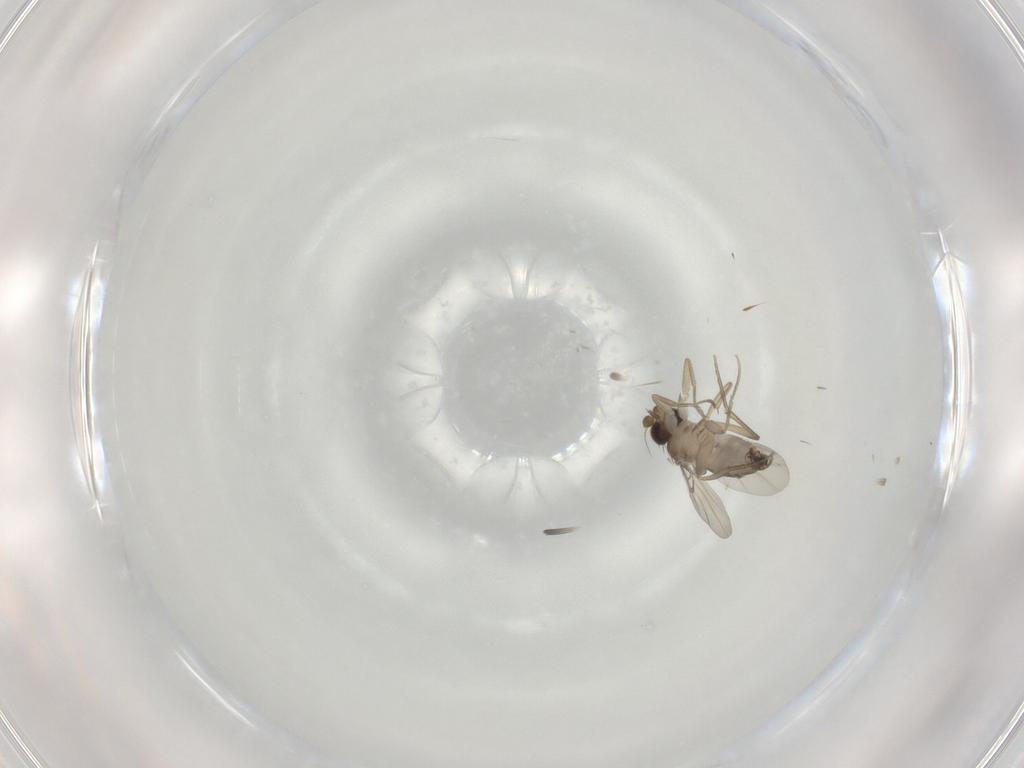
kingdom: Animalia
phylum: Arthropoda
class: Insecta
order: Diptera
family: Phoridae
